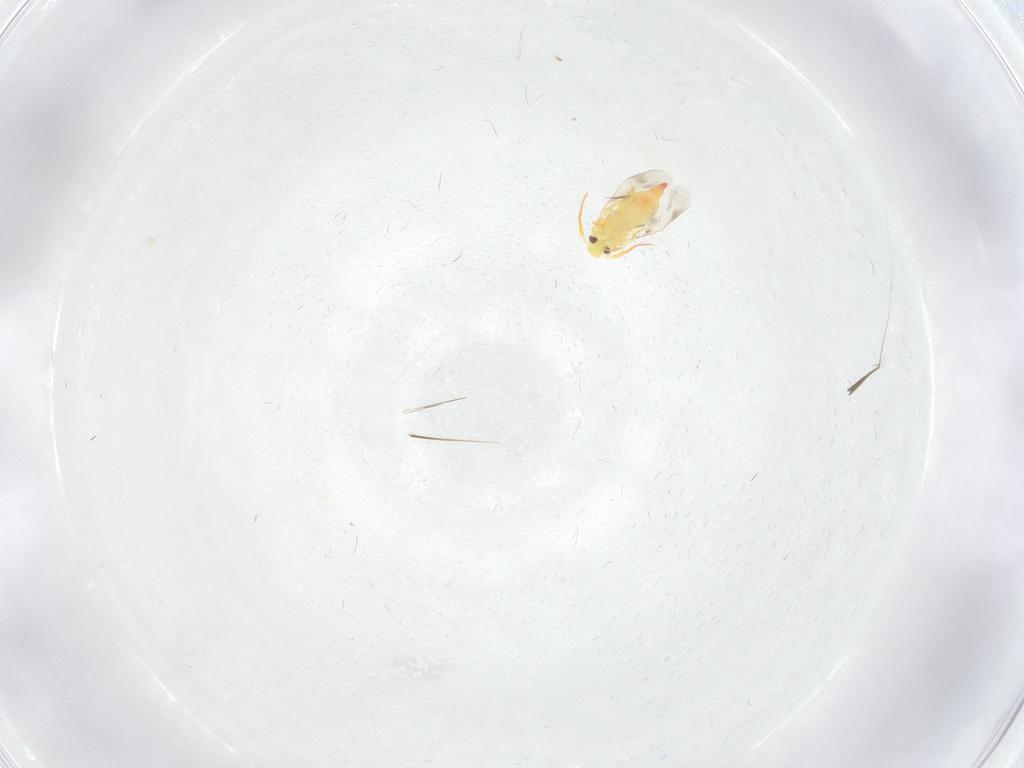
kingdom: Animalia
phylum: Arthropoda
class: Insecta
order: Hemiptera
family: Aleyrodidae
